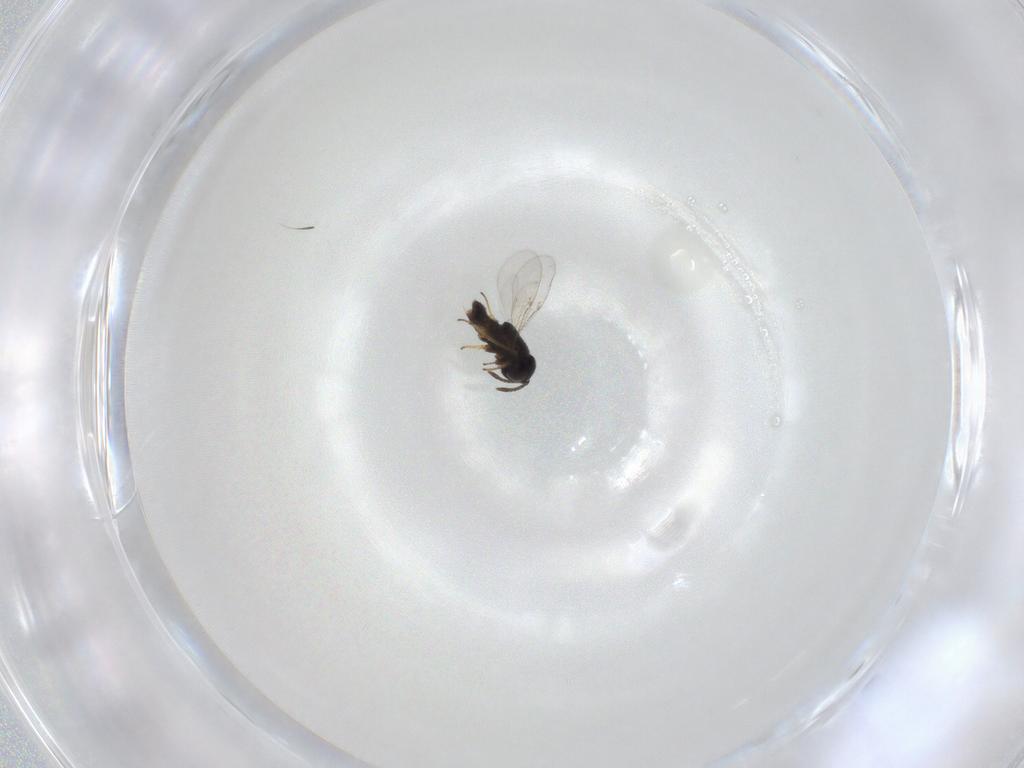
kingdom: Animalia
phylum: Arthropoda
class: Insecta
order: Hymenoptera
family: Encyrtidae
